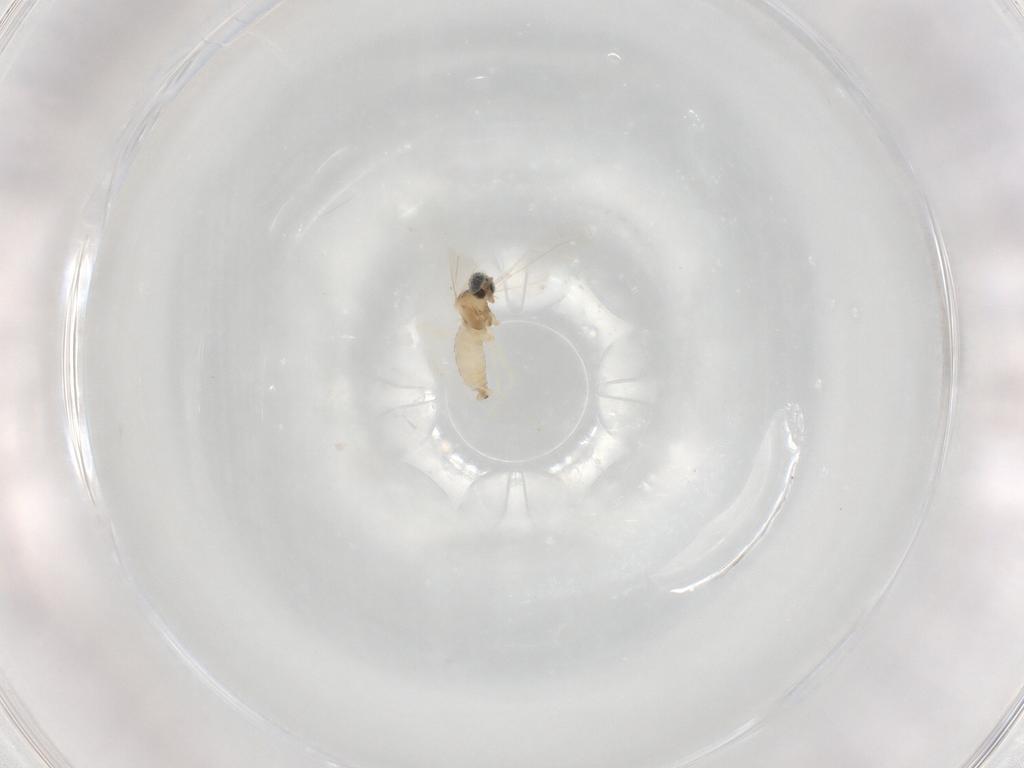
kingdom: Animalia
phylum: Arthropoda
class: Insecta
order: Diptera
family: Cecidomyiidae
